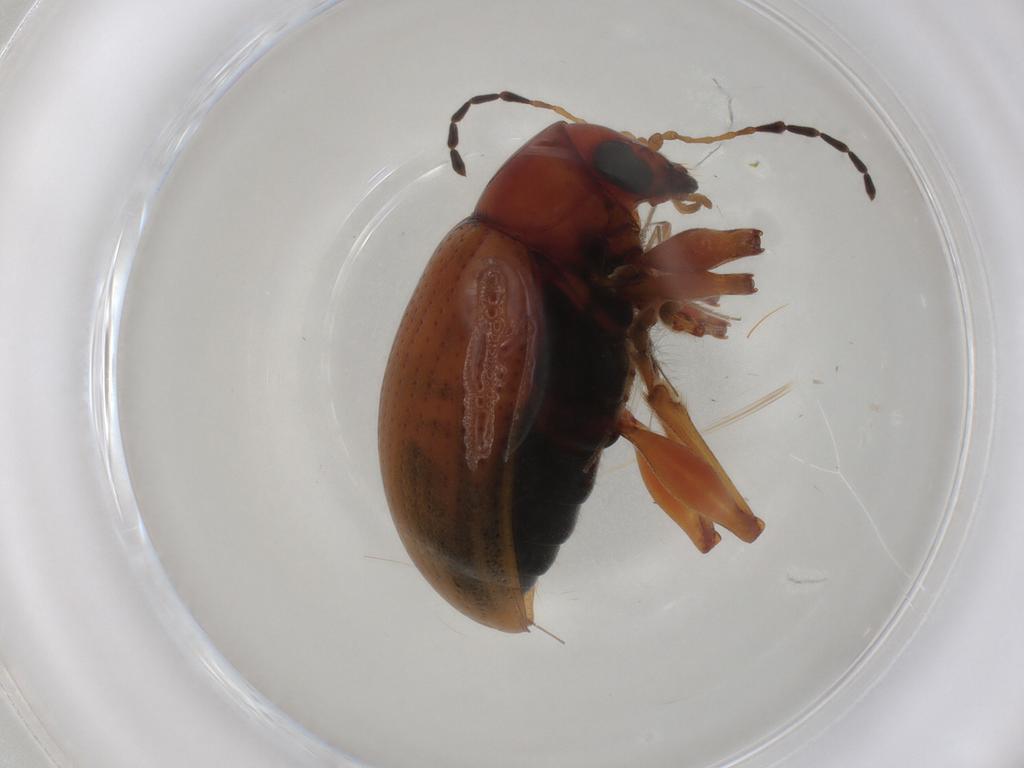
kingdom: Animalia
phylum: Arthropoda
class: Insecta
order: Coleoptera
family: Chrysomelidae
